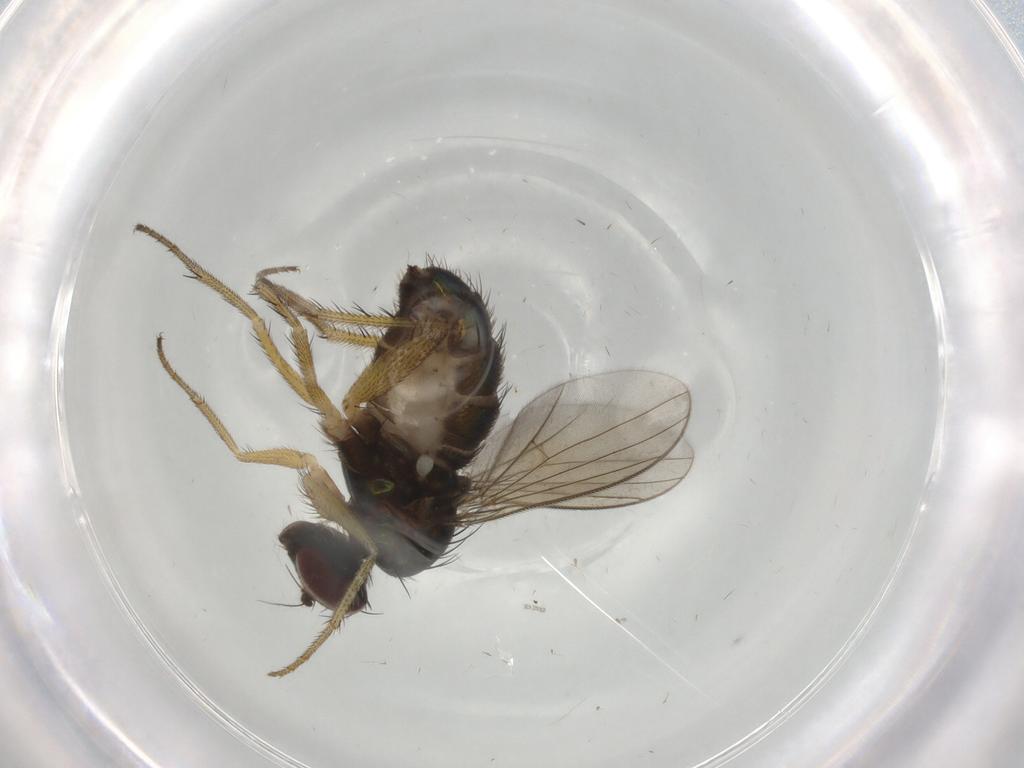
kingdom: Animalia
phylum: Arthropoda
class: Insecta
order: Diptera
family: Dolichopodidae
